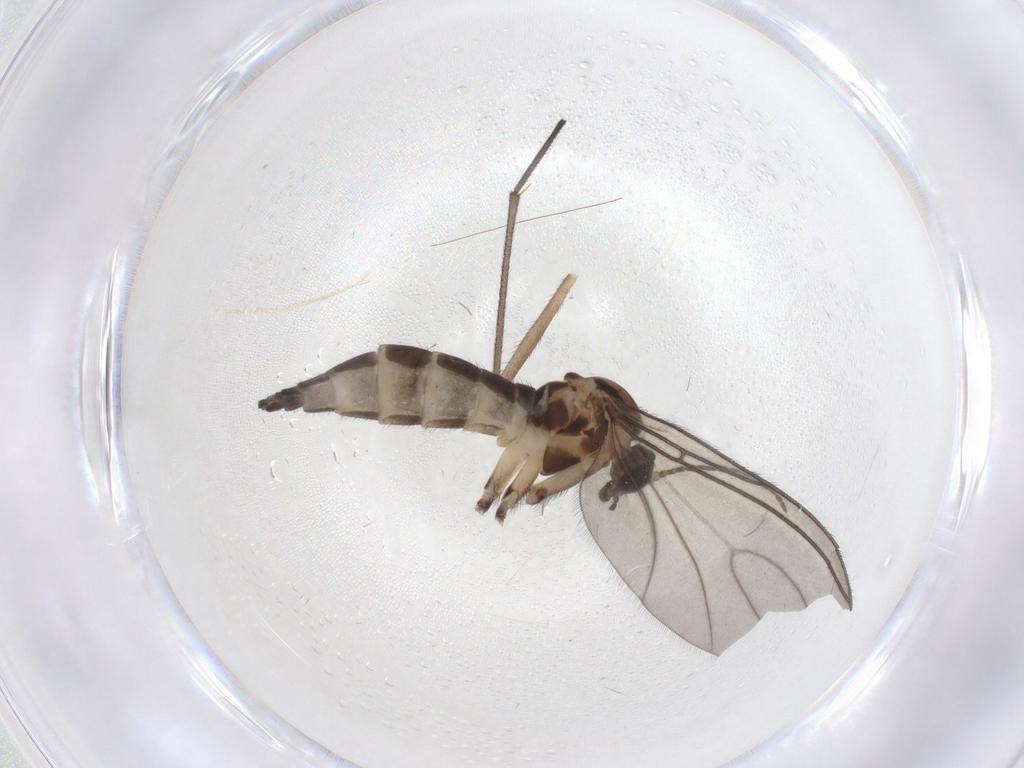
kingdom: Animalia
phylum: Arthropoda
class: Insecta
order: Diptera
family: Sciaridae
